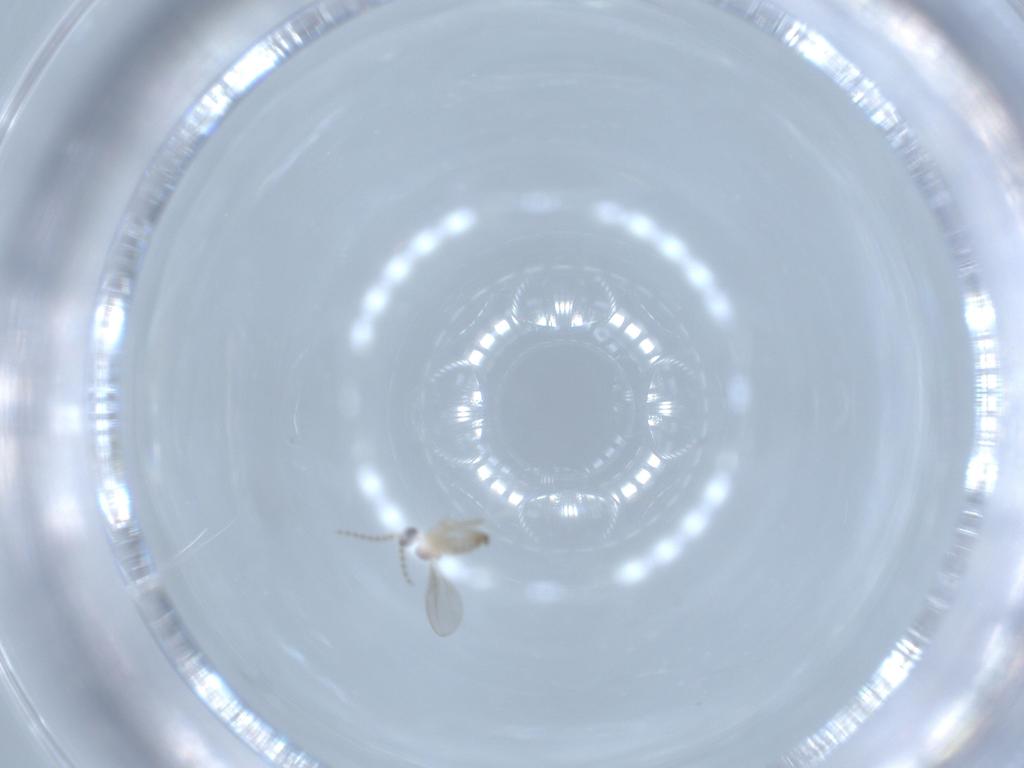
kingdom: Animalia
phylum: Arthropoda
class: Insecta
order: Diptera
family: Cecidomyiidae
